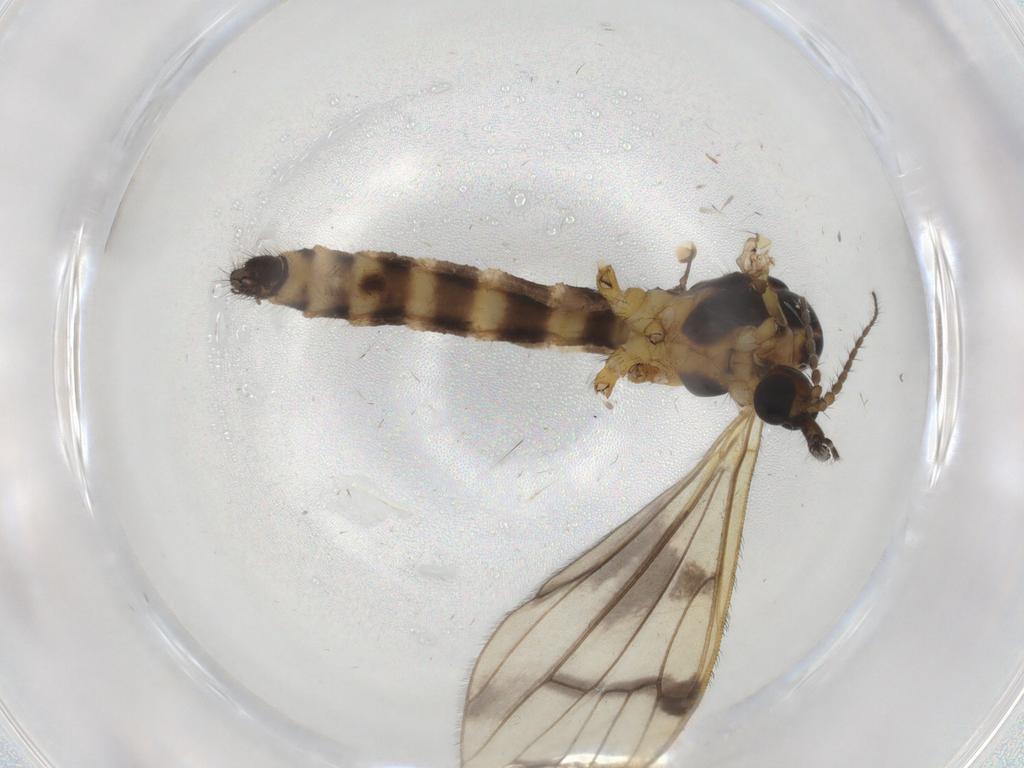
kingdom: Animalia
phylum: Arthropoda
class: Insecta
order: Diptera
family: Limoniidae
